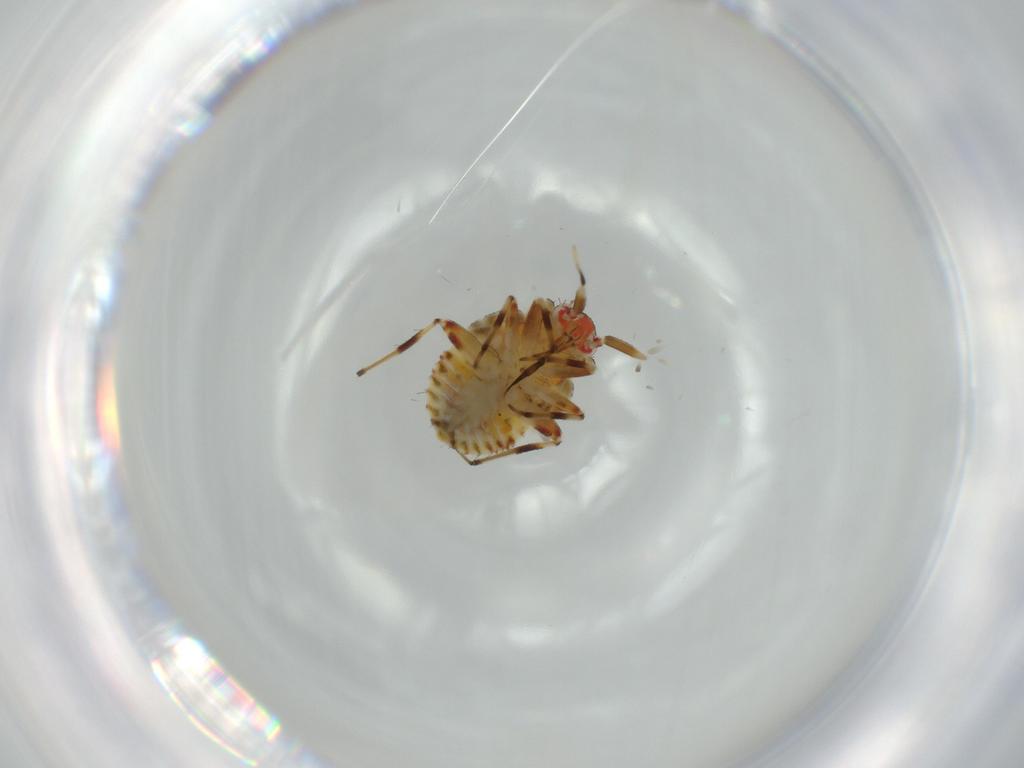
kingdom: Animalia
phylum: Arthropoda
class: Insecta
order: Hemiptera
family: Miridae
